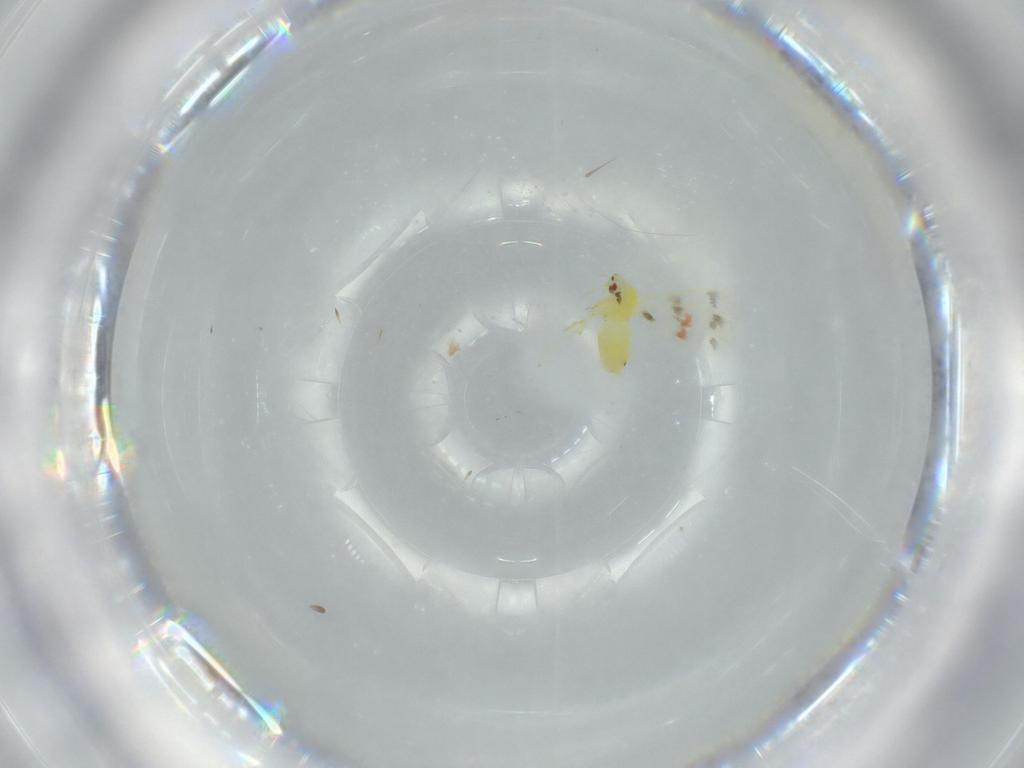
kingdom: Animalia
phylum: Arthropoda
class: Insecta
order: Hemiptera
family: Aleyrodidae
